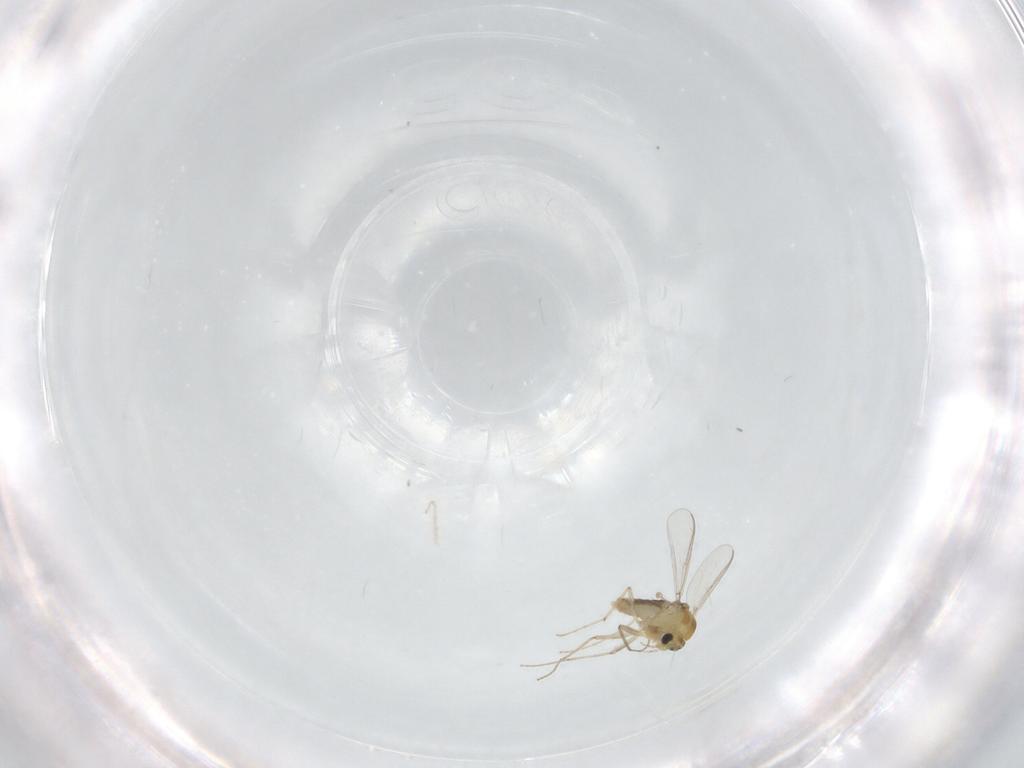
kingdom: Animalia
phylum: Arthropoda
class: Insecta
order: Diptera
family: Chironomidae
